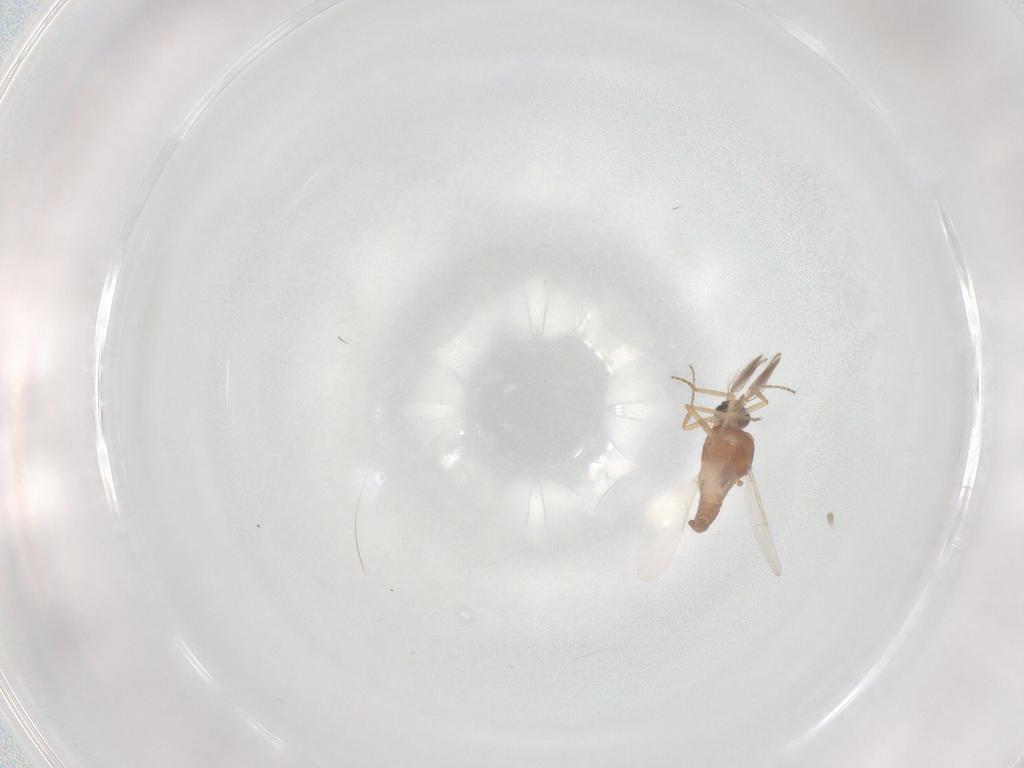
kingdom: Animalia
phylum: Arthropoda
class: Insecta
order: Diptera
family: Ceratopogonidae
